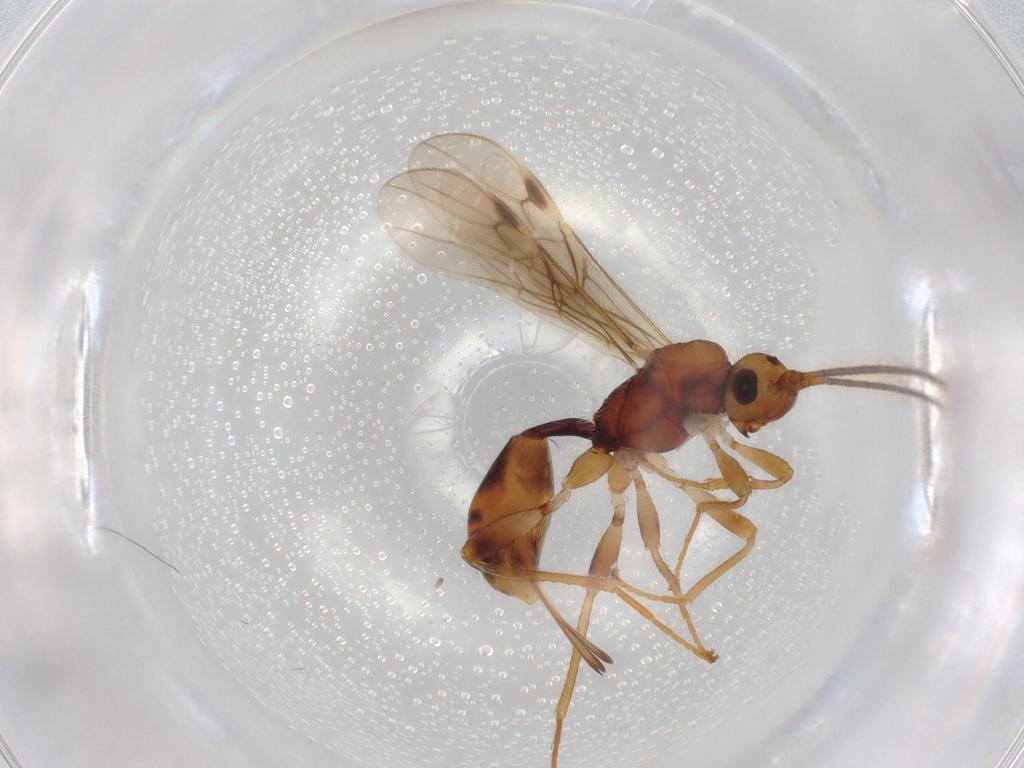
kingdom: Animalia
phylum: Arthropoda
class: Insecta
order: Hymenoptera
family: Braconidae
